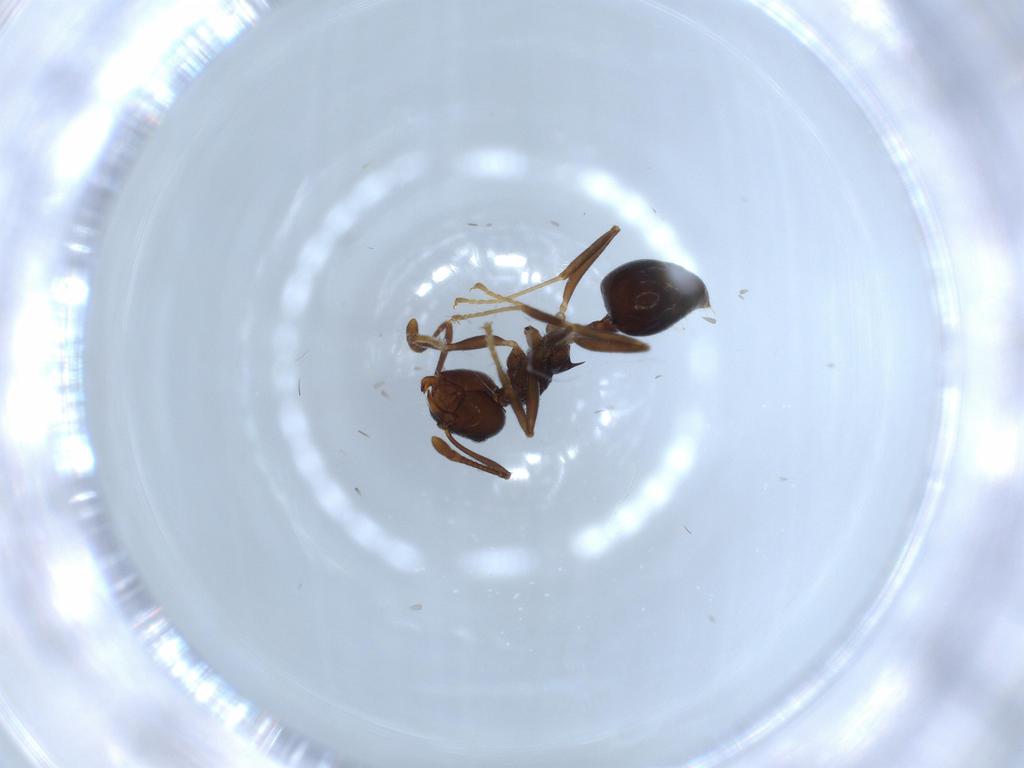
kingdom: Animalia
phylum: Arthropoda
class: Insecta
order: Hymenoptera
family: Formicidae
